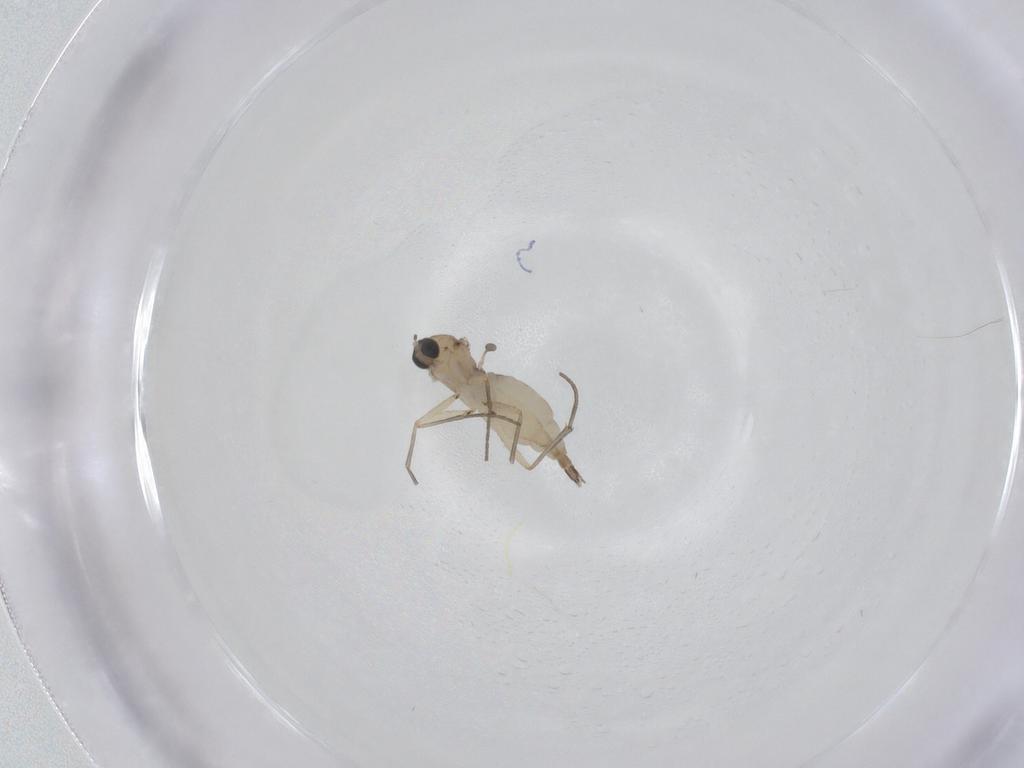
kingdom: Animalia
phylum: Arthropoda
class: Insecta
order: Diptera
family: Sciaridae
